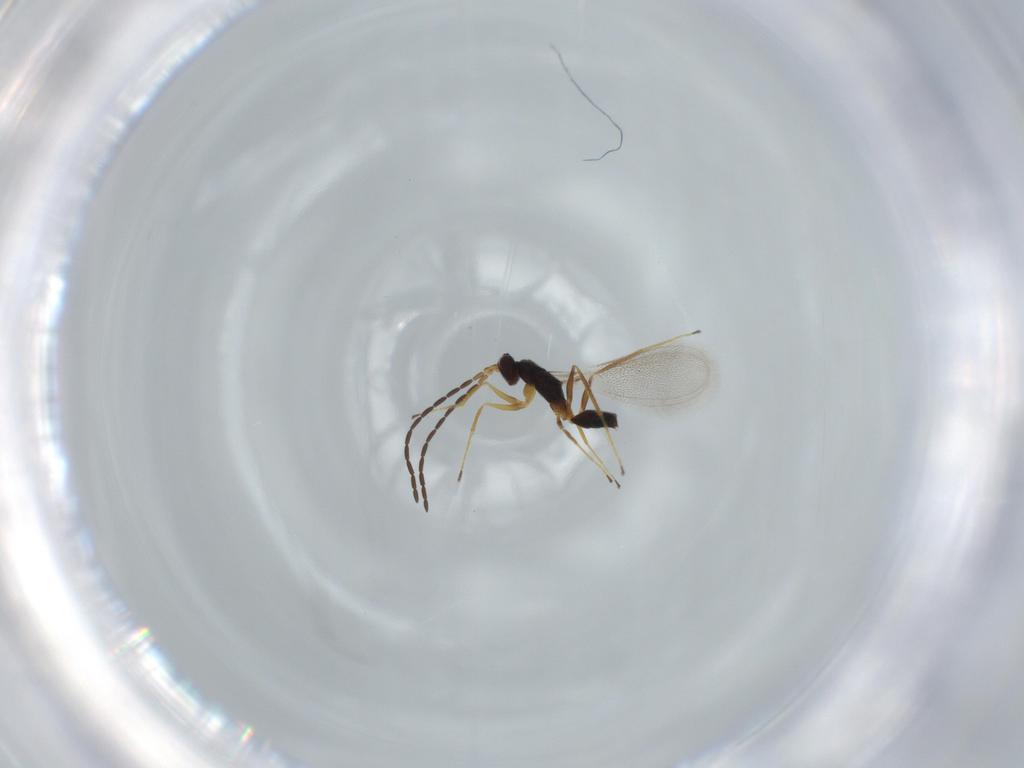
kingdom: Animalia
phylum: Arthropoda
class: Insecta
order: Hymenoptera
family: Mymaridae
